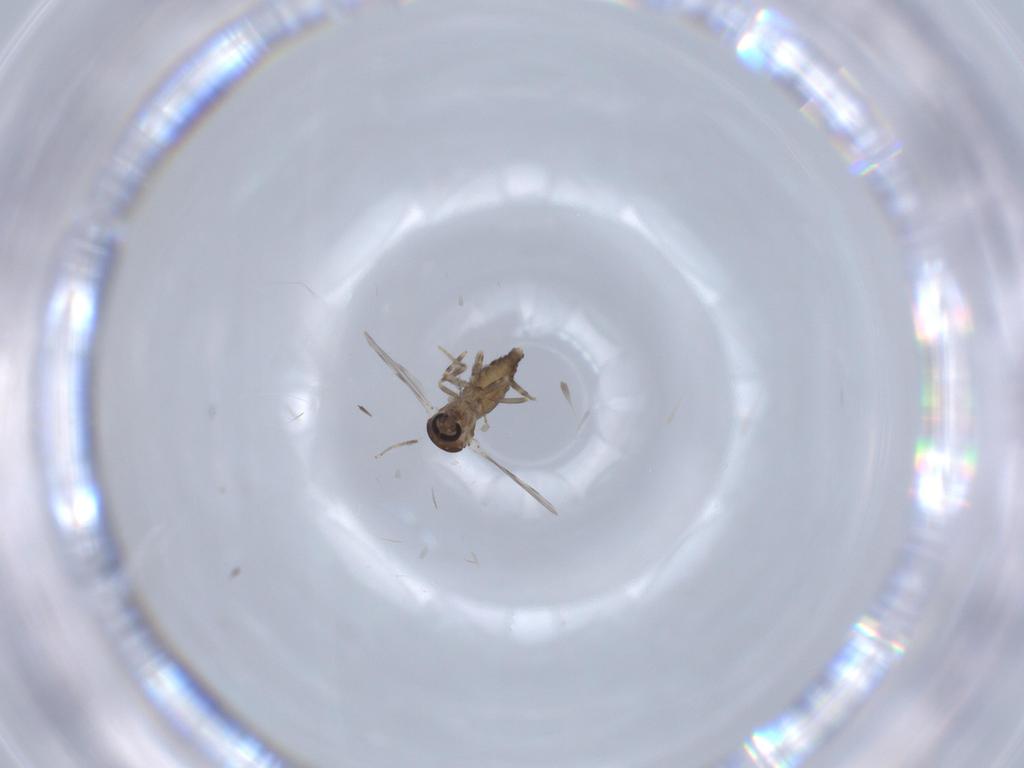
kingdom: Animalia
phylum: Arthropoda
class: Insecta
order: Diptera
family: Ceratopogonidae
